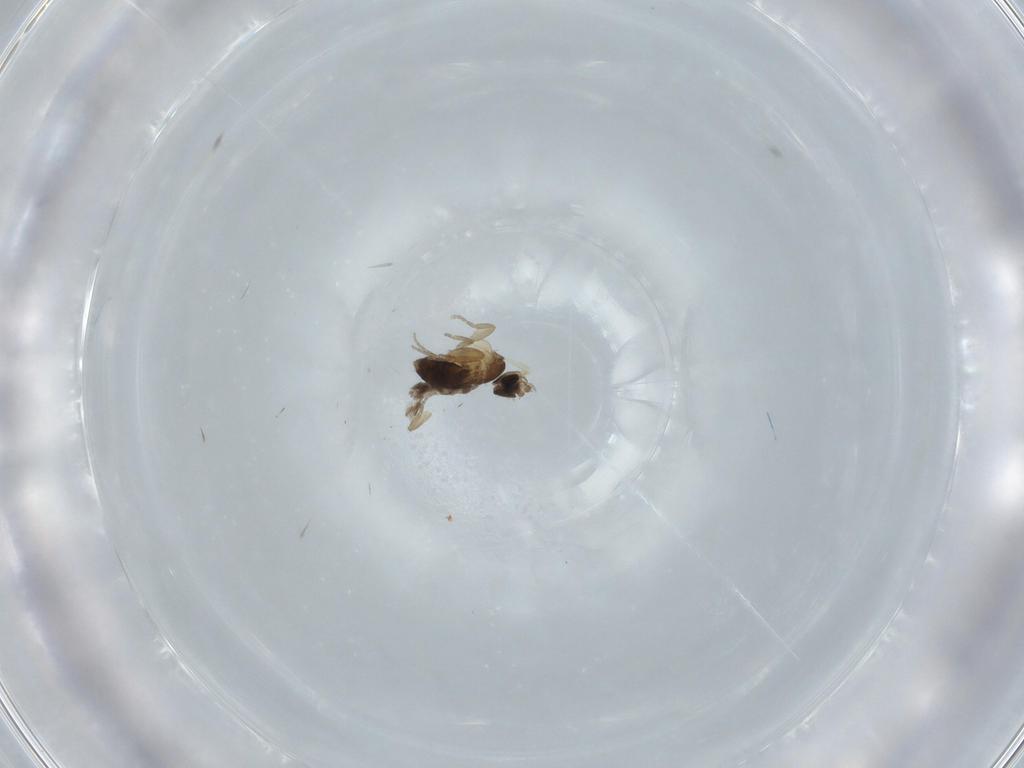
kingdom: Animalia
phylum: Arthropoda
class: Insecta
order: Diptera
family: Phoridae
